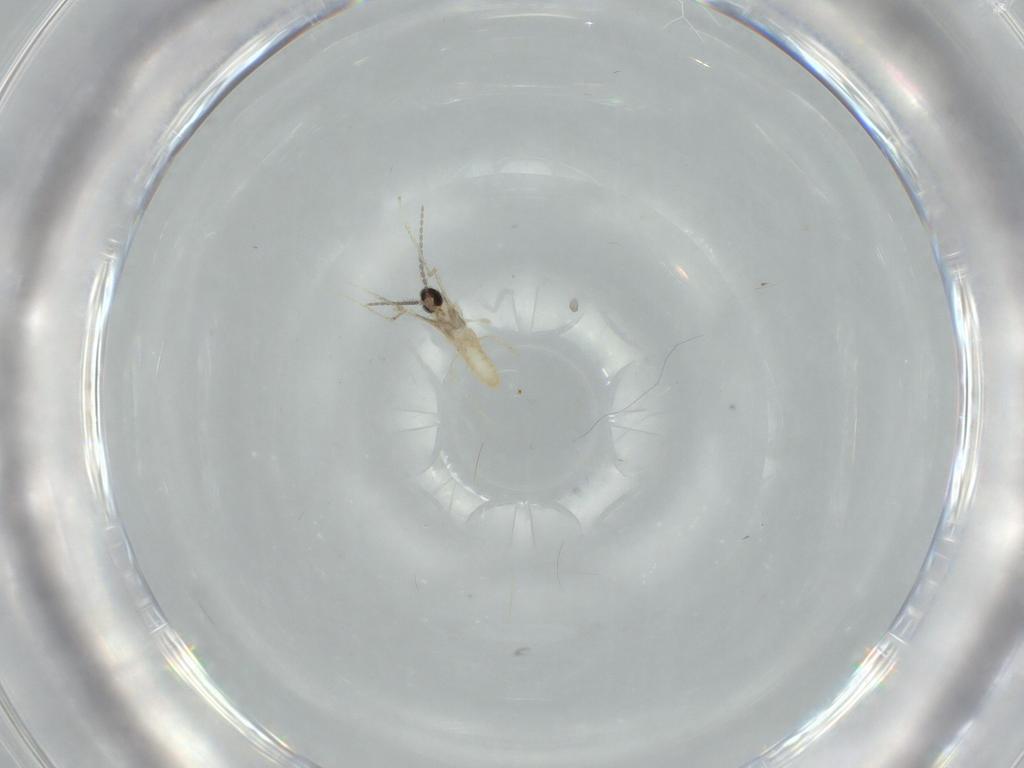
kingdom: Animalia
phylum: Arthropoda
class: Insecta
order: Diptera
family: Cecidomyiidae
